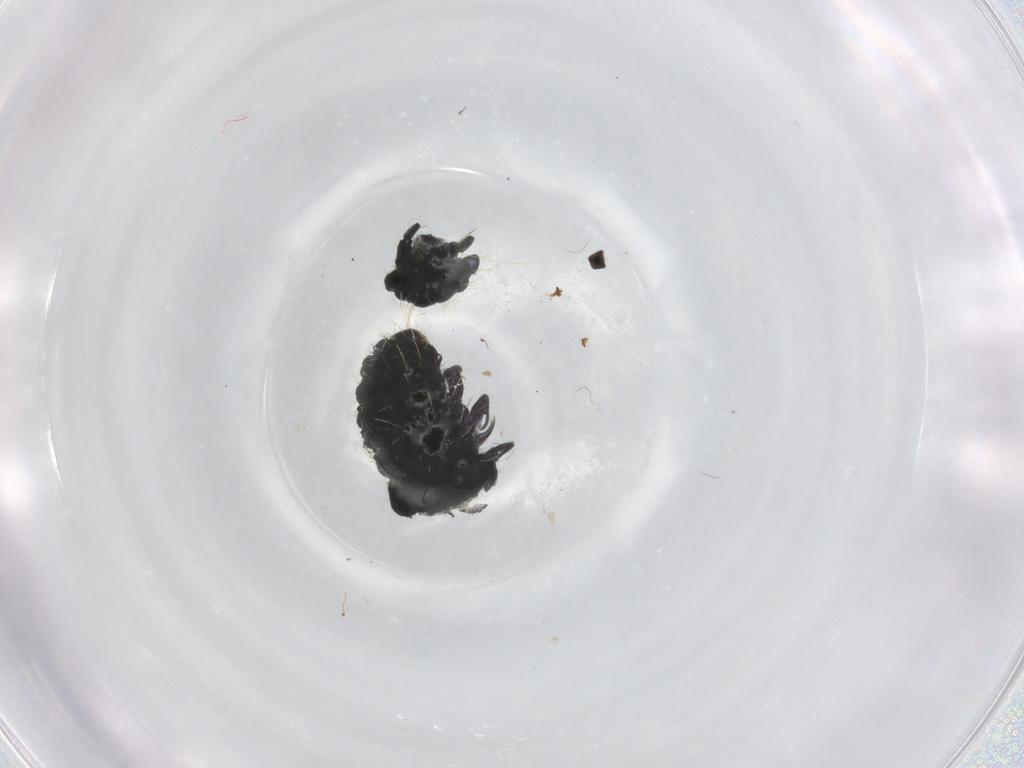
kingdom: Animalia
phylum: Arthropoda
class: Collembola
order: Poduromorpha
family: Neanuridae
